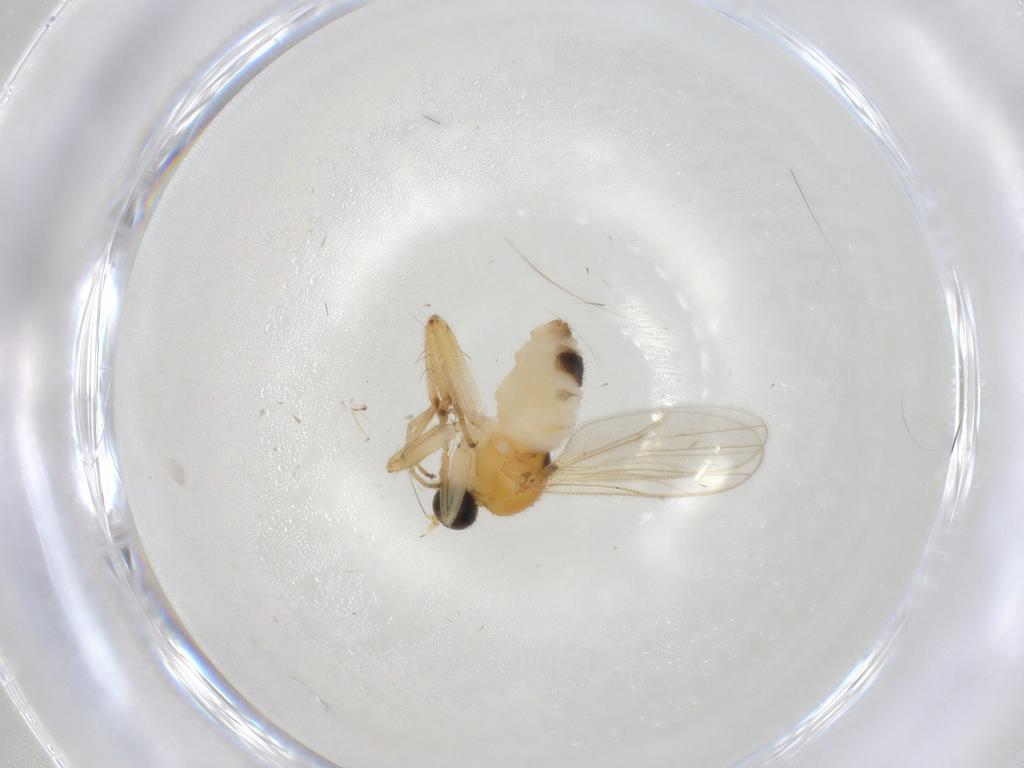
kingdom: Animalia
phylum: Arthropoda
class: Insecta
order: Diptera
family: Hybotidae
